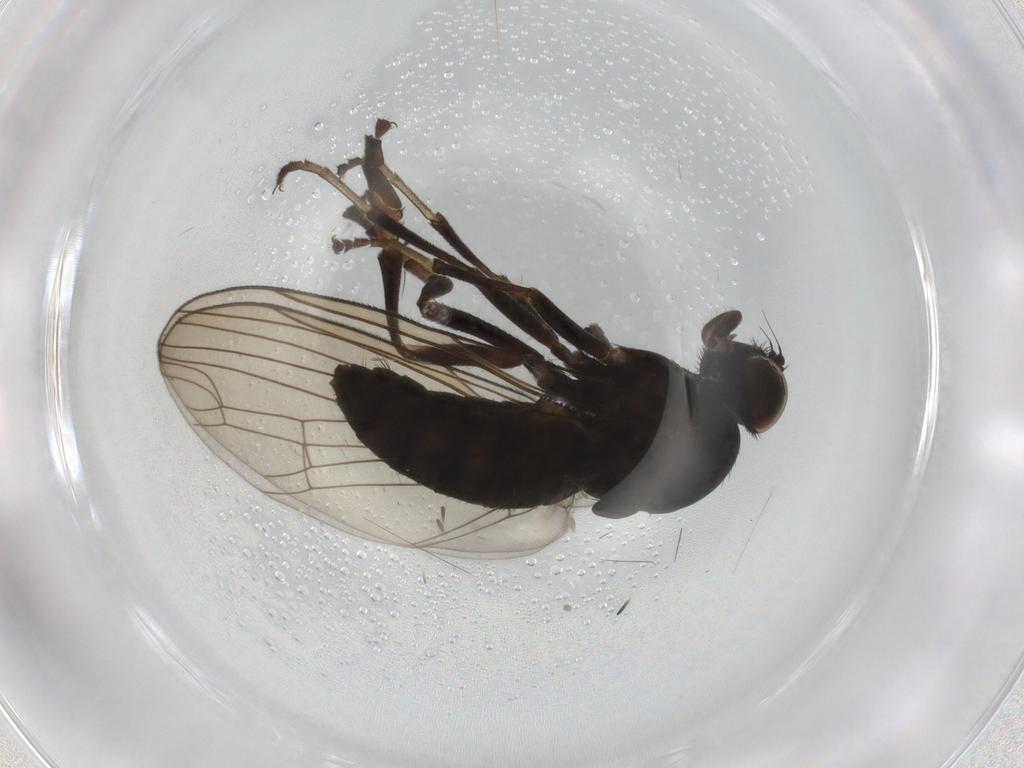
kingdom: Animalia
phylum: Arthropoda
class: Insecta
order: Diptera
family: Platypezidae
